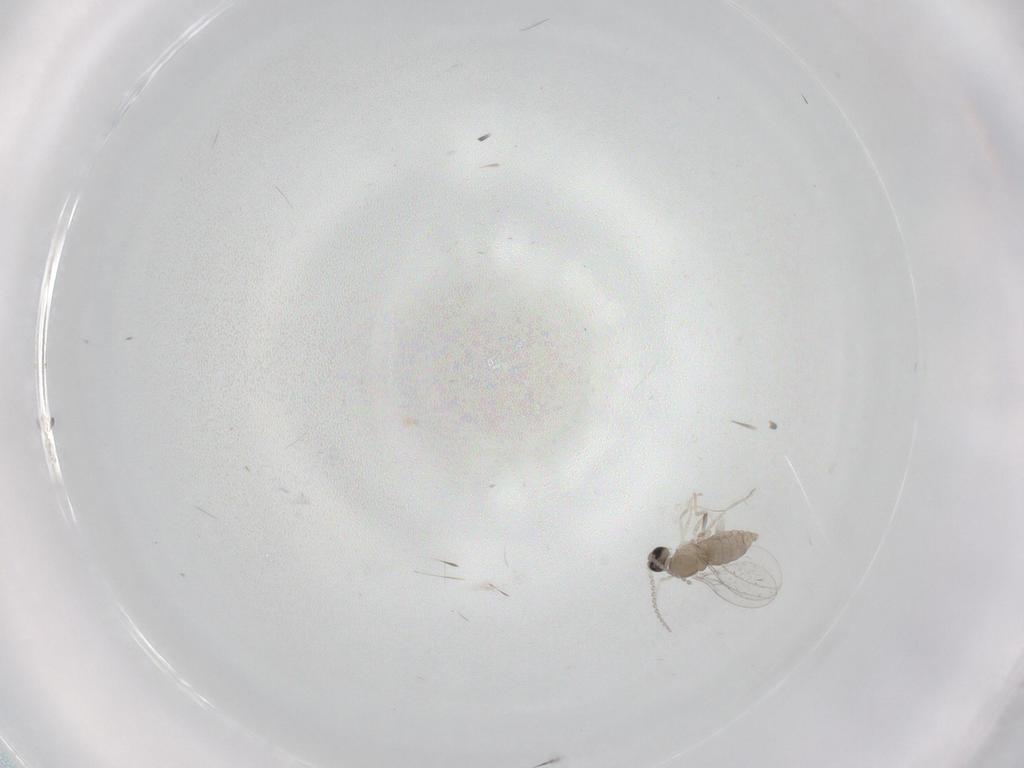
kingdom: Animalia
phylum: Arthropoda
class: Insecta
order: Diptera
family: Cecidomyiidae
